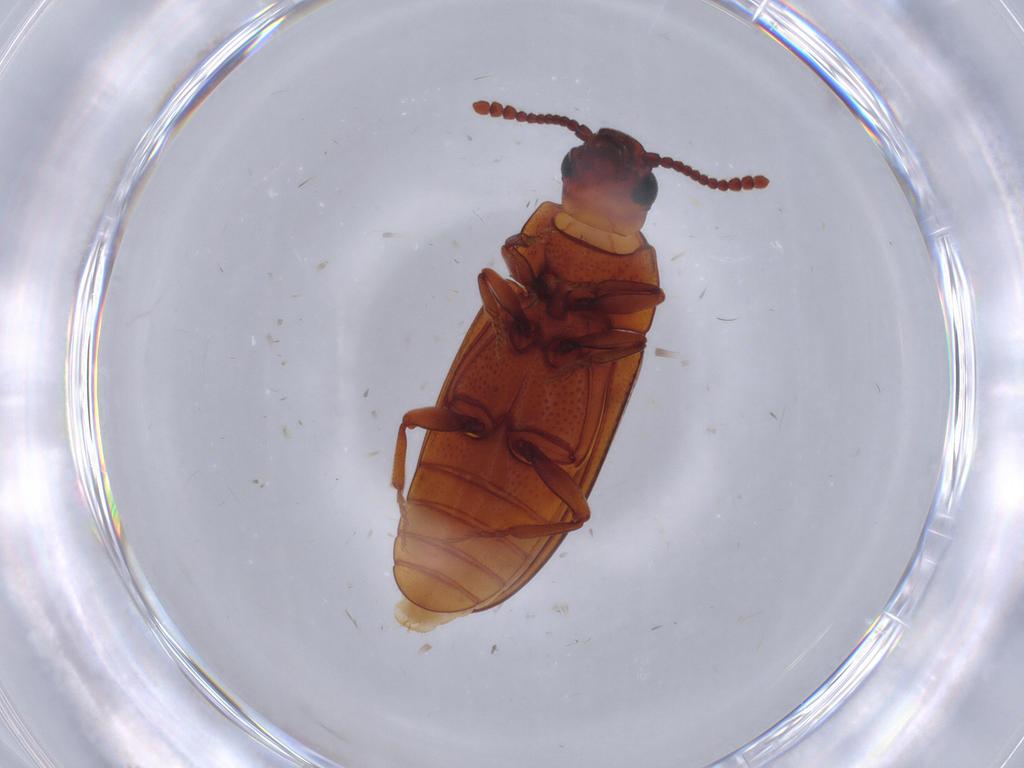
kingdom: Animalia
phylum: Arthropoda
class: Insecta
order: Coleoptera
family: Erotylidae
